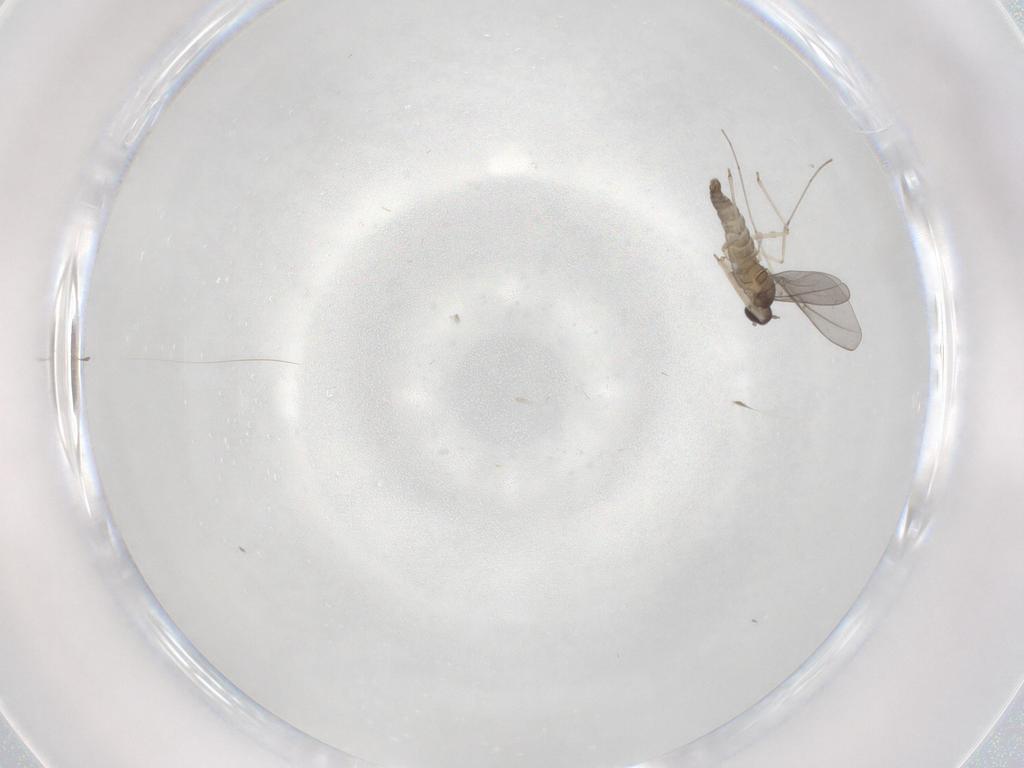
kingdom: Animalia
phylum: Arthropoda
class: Insecta
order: Diptera
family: Cecidomyiidae
